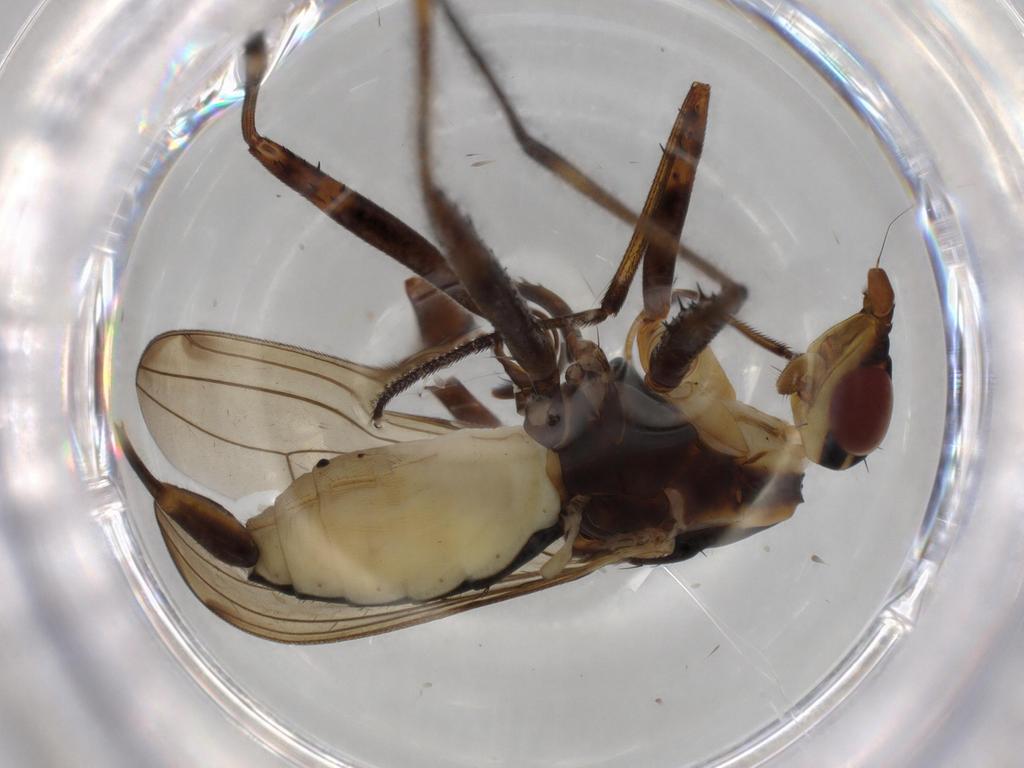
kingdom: Animalia
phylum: Arthropoda
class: Insecta
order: Diptera
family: Neriidae
